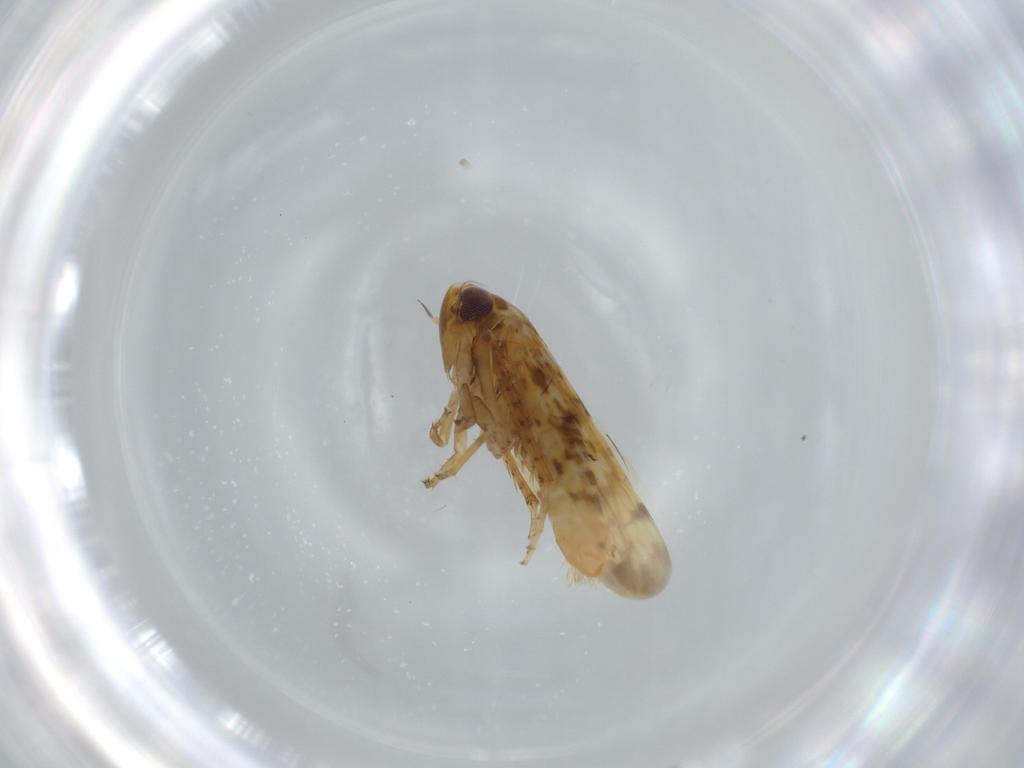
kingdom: Animalia
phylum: Arthropoda
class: Insecta
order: Hemiptera
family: Cicadellidae
